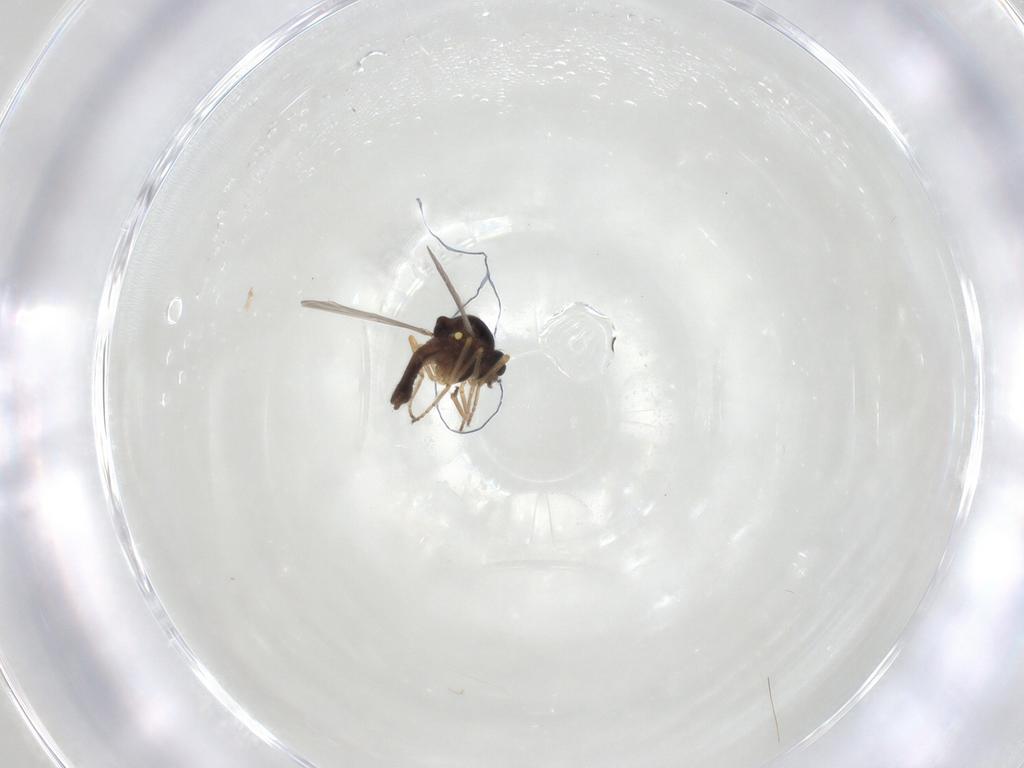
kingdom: Animalia
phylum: Arthropoda
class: Insecta
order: Diptera
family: Ceratopogonidae
